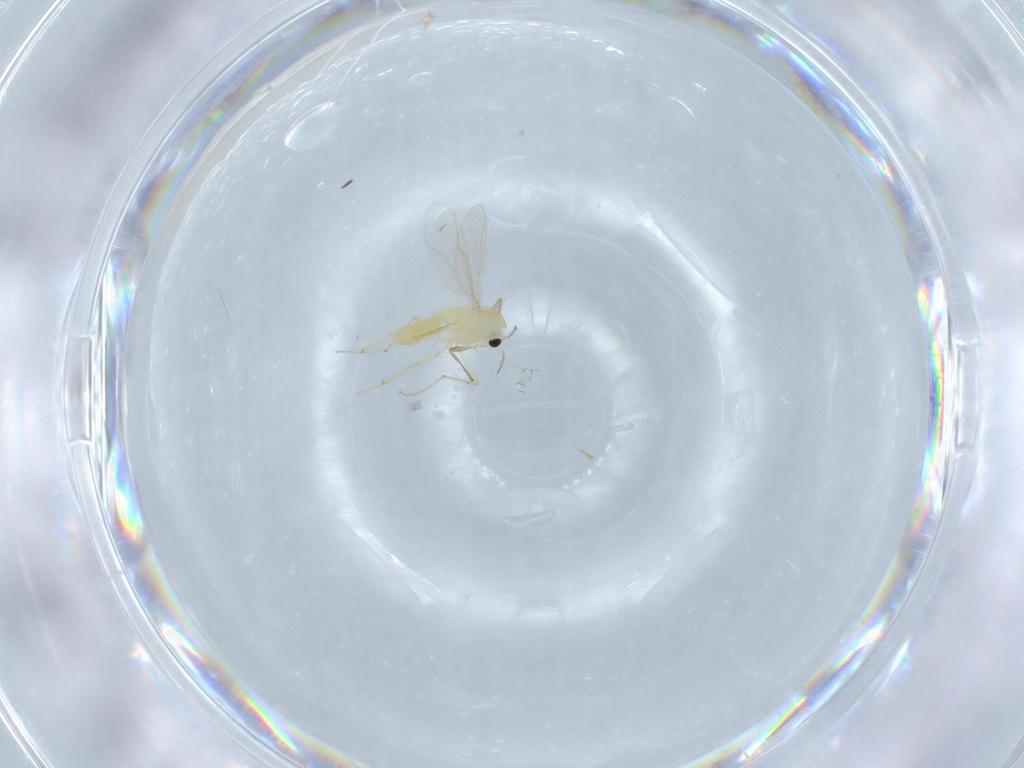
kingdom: Animalia
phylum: Arthropoda
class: Insecta
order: Diptera
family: Chironomidae
